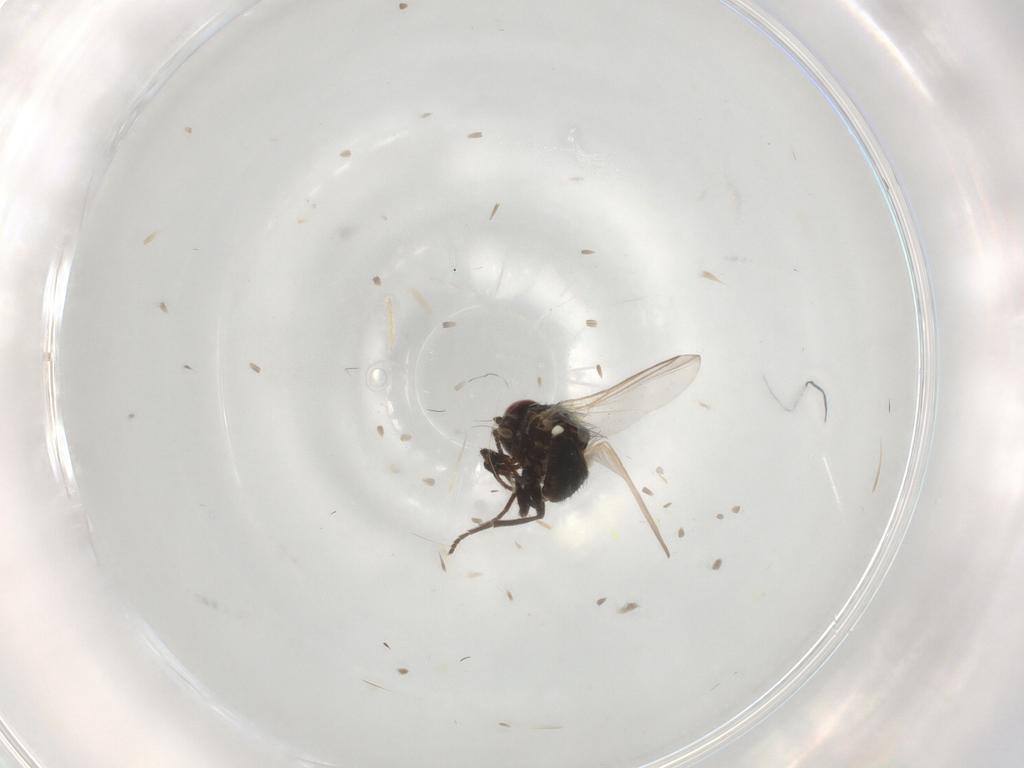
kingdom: Animalia
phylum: Arthropoda
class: Insecta
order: Diptera
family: Agromyzidae
